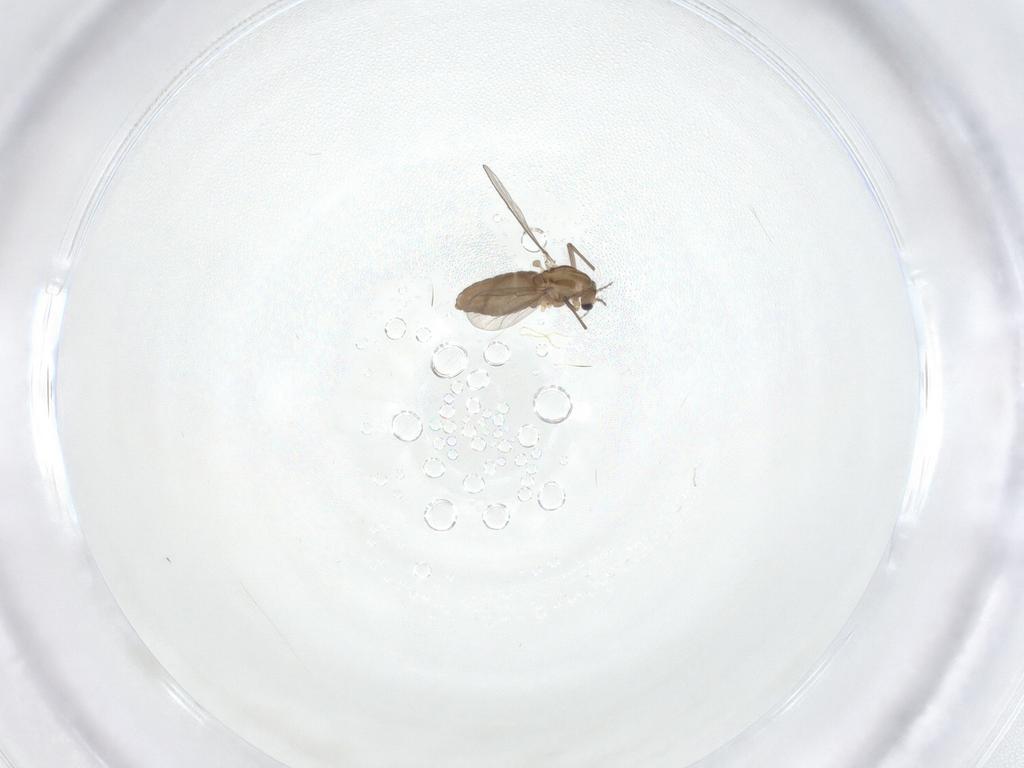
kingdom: Animalia
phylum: Arthropoda
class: Insecta
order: Diptera
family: Chironomidae
